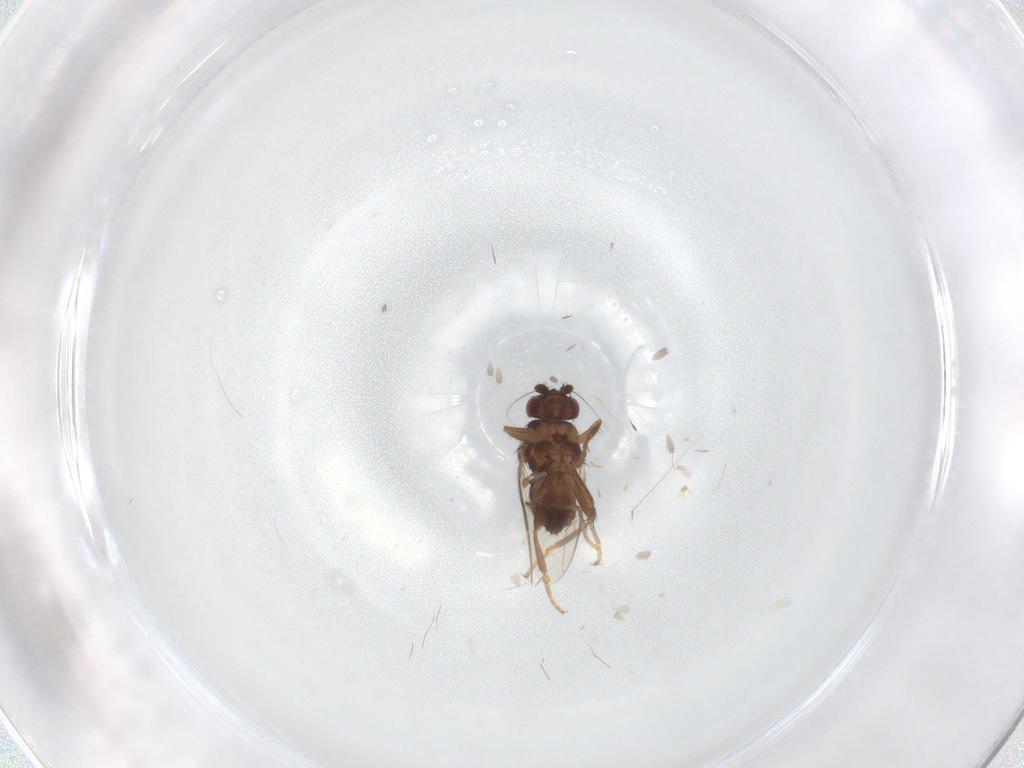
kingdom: Animalia
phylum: Arthropoda
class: Insecta
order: Diptera
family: Sphaeroceridae
